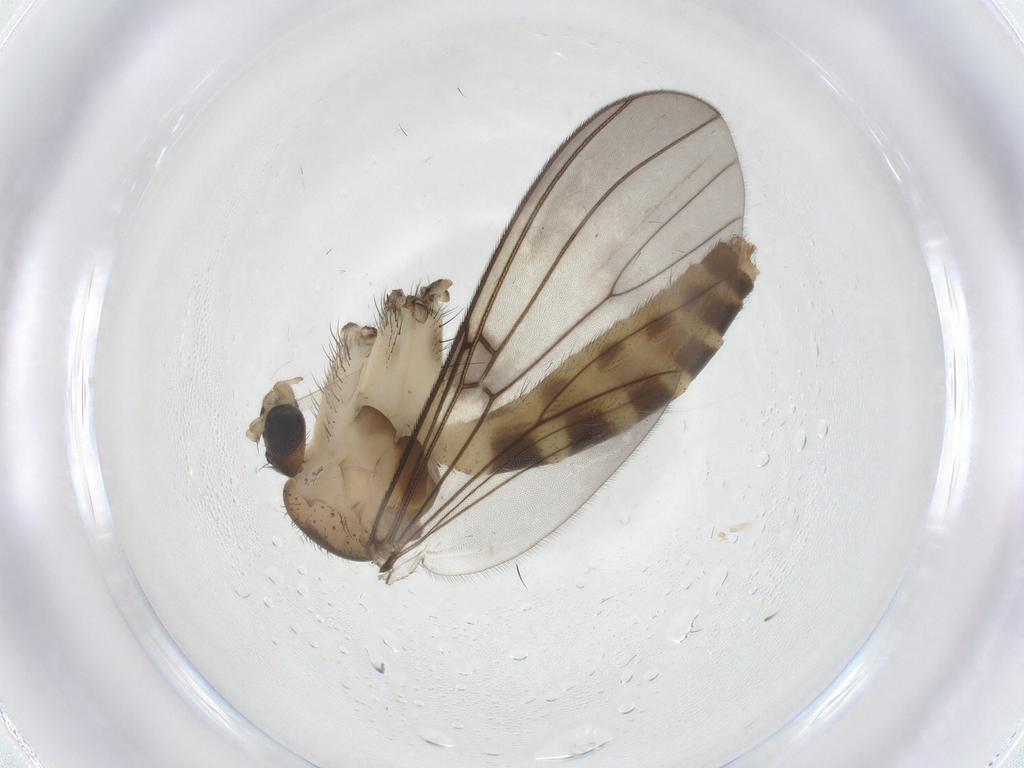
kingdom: Animalia
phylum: Arthropoda
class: Insecta
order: Diptera
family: Mycetophilidae
